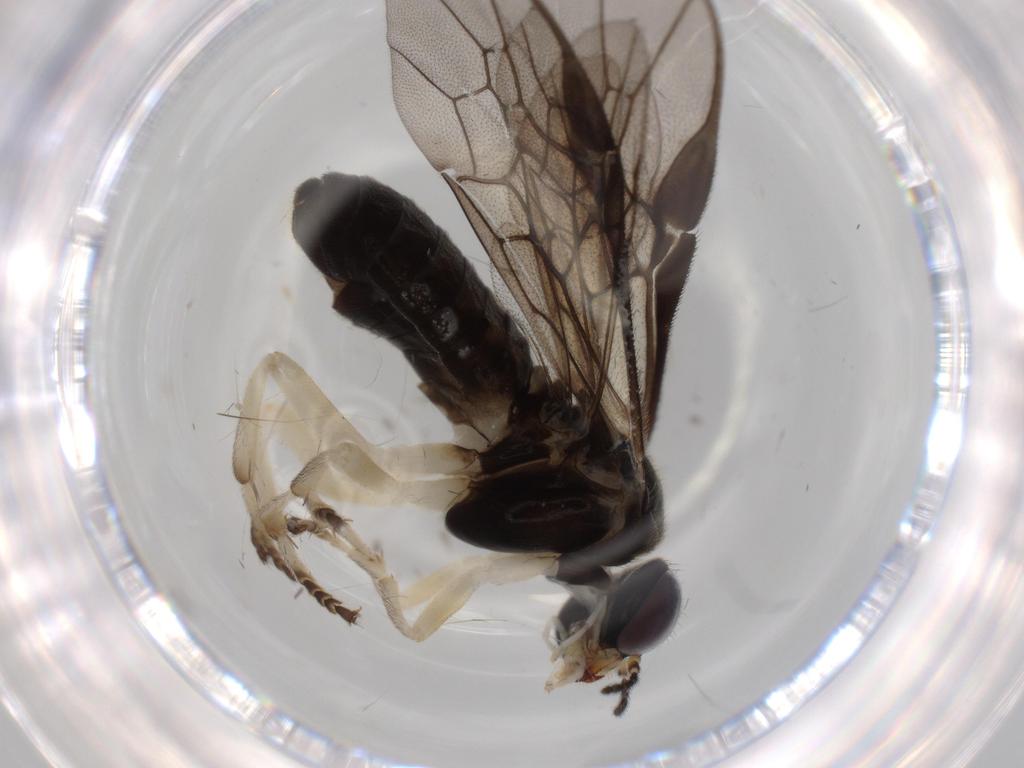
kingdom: Animalia
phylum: Arthropoda
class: Insecta
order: Hymenoptera
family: Pergidae
